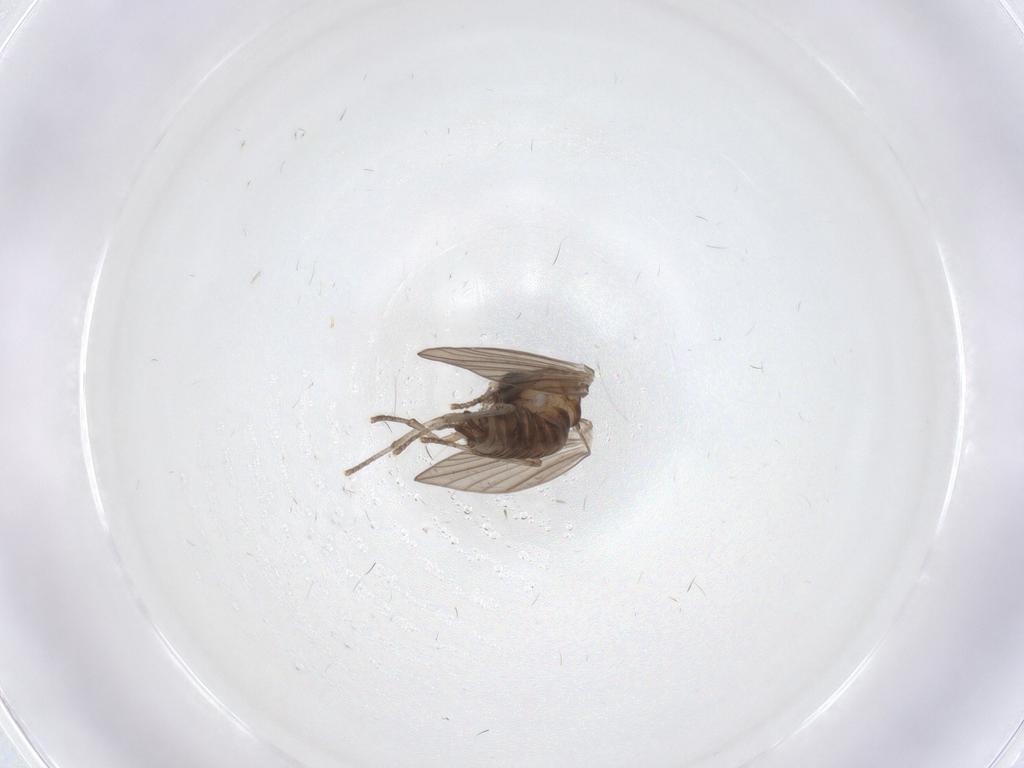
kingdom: Animalia
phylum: Arthropoda
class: Insecta
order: Diptera
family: Psychodidae
